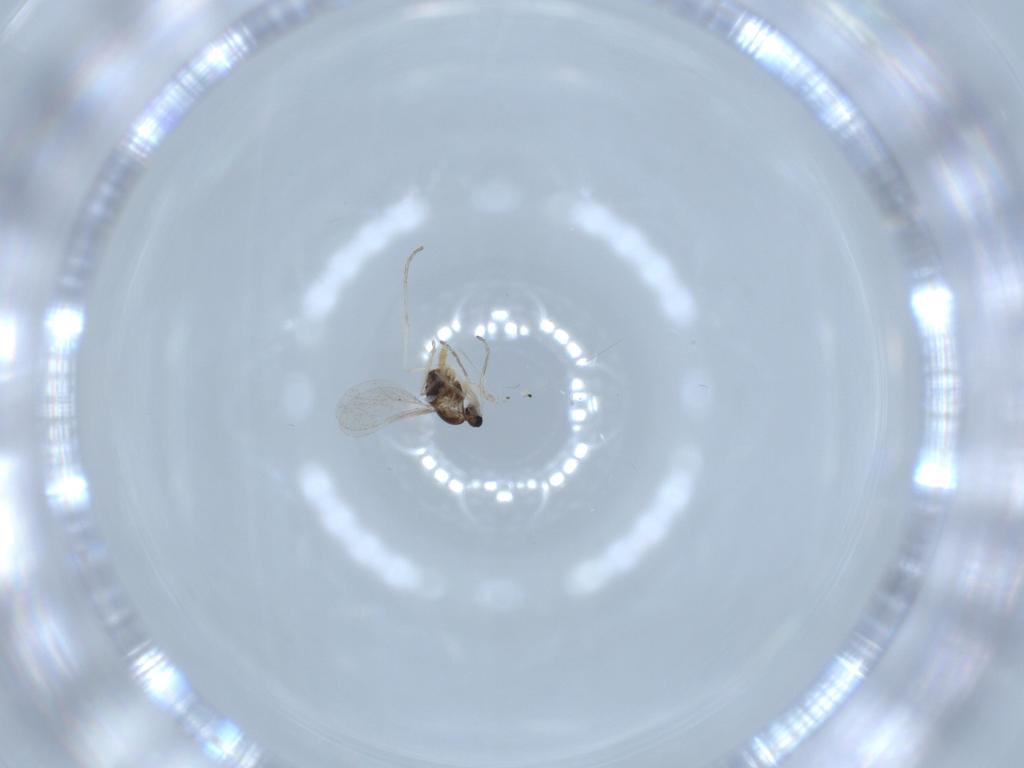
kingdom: Animalia
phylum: Arthropoda
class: Insecta
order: Diptera
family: Cecidomyiidae
